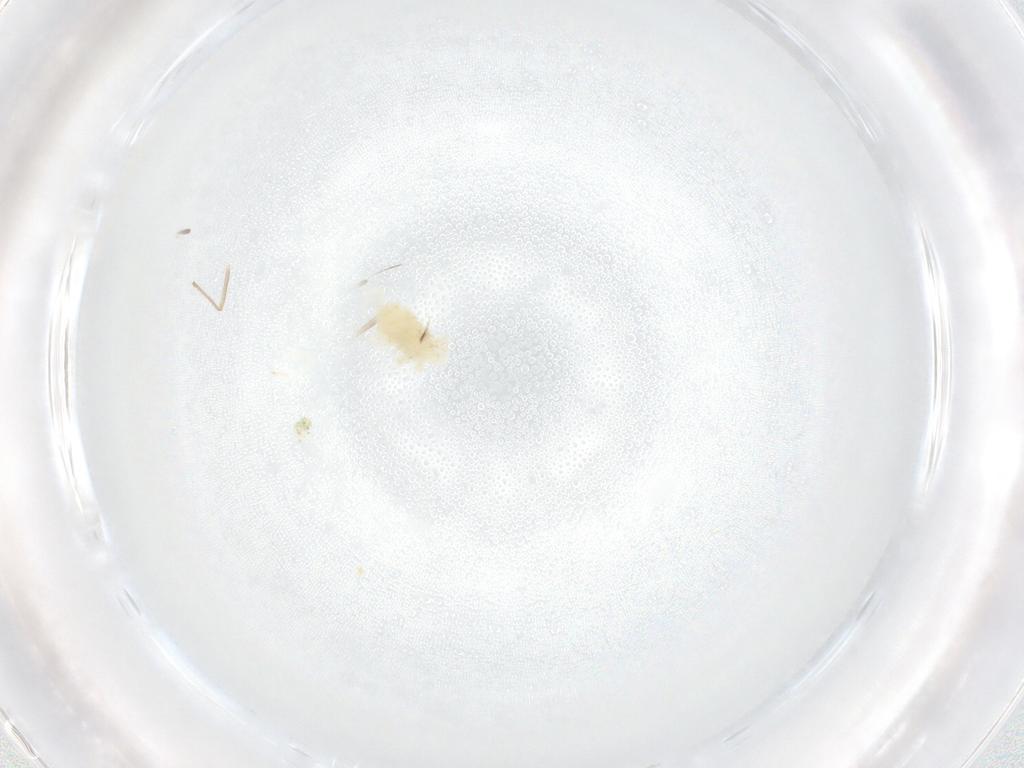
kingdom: Animalia
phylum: Arthropoda
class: Arachnida
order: Trombidiformes
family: Anystidae
